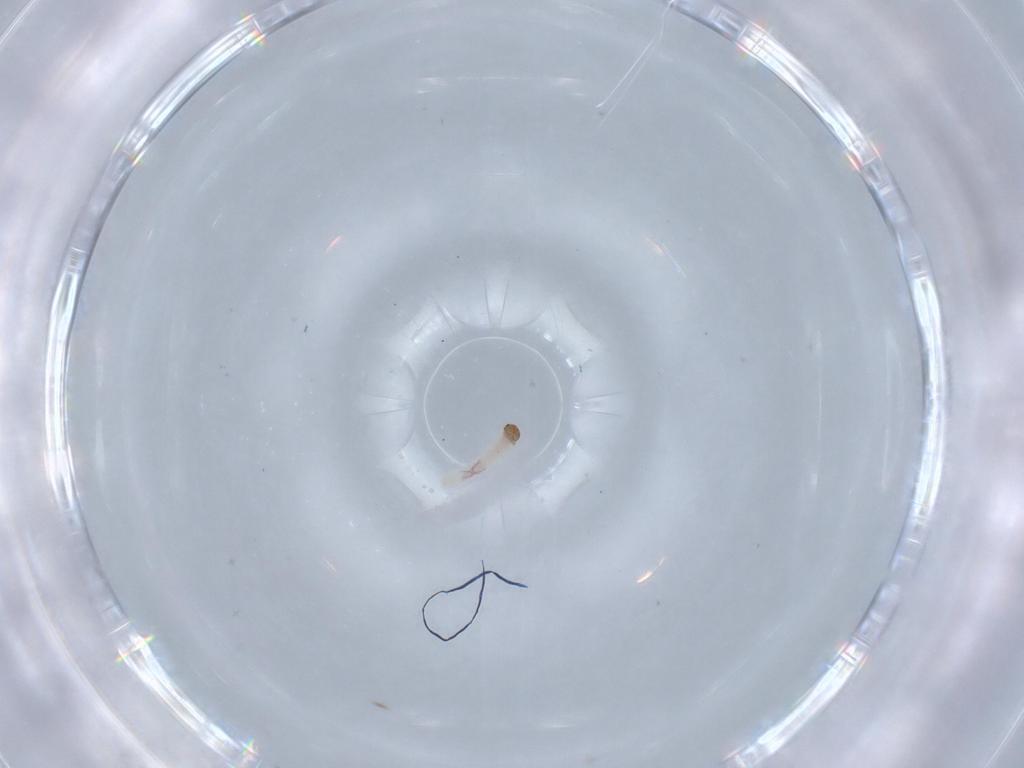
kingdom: Animalia
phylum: Arthropoda
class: Insecta
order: Lepidoptera
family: Blastobasidae
